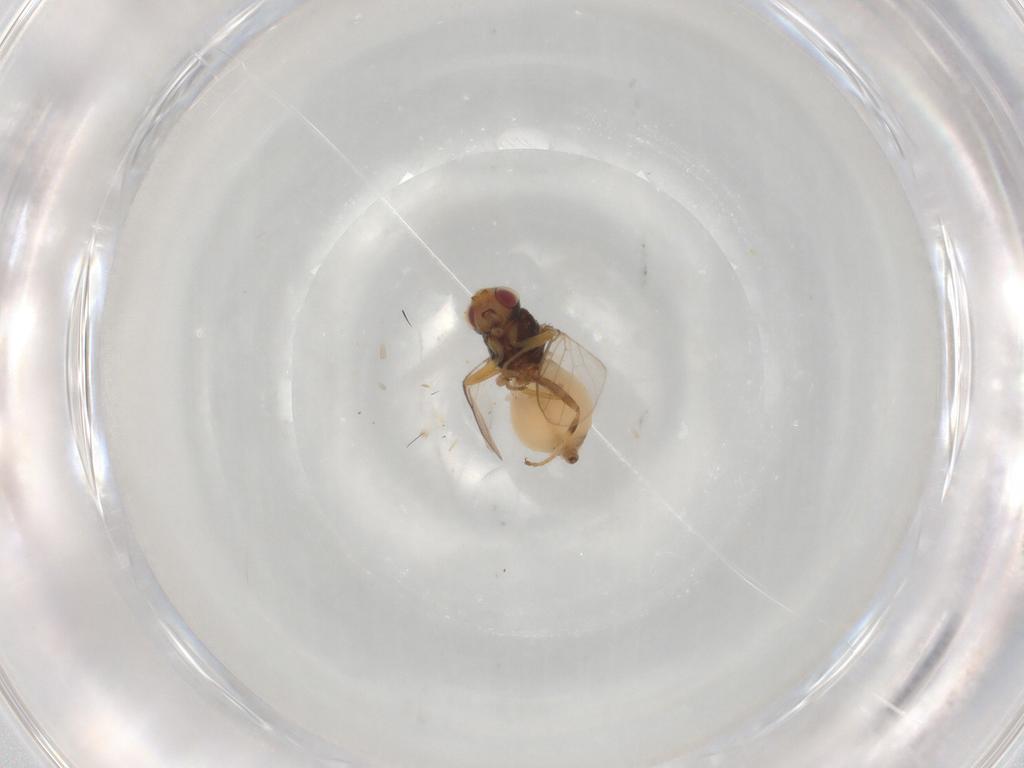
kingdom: Animalia
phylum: Arthropoda
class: Insecta
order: Diptera
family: Chloropidae
